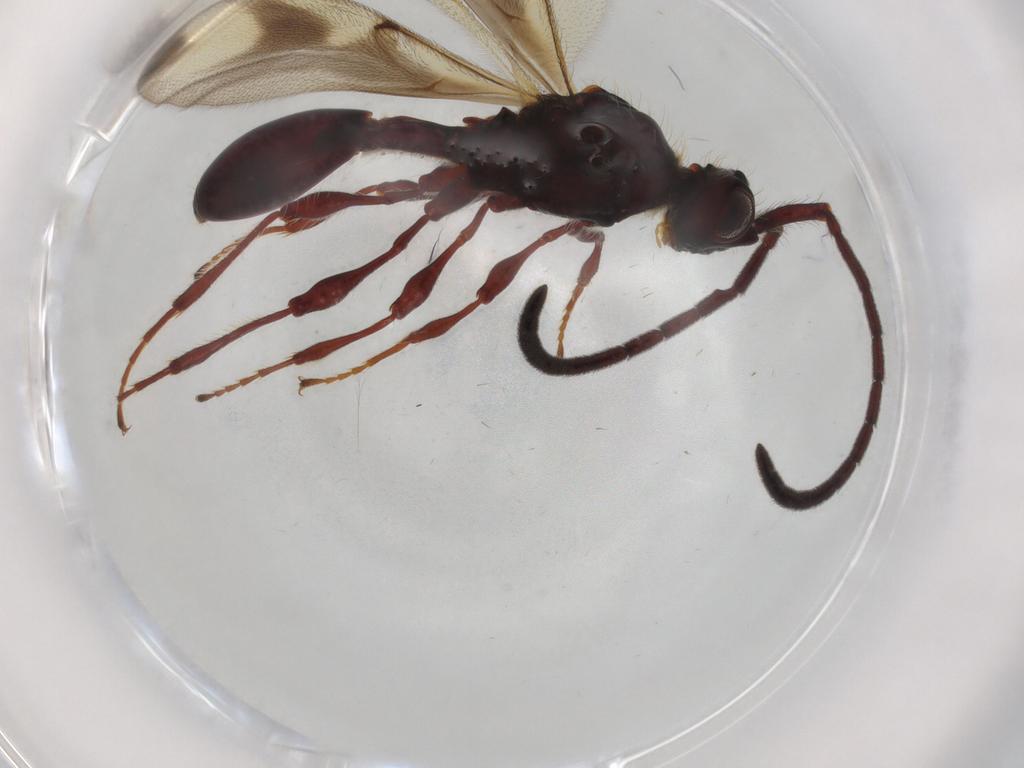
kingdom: Animalia
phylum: Arthropoda
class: Insecta
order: Hymenoptera
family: Diapriidae
